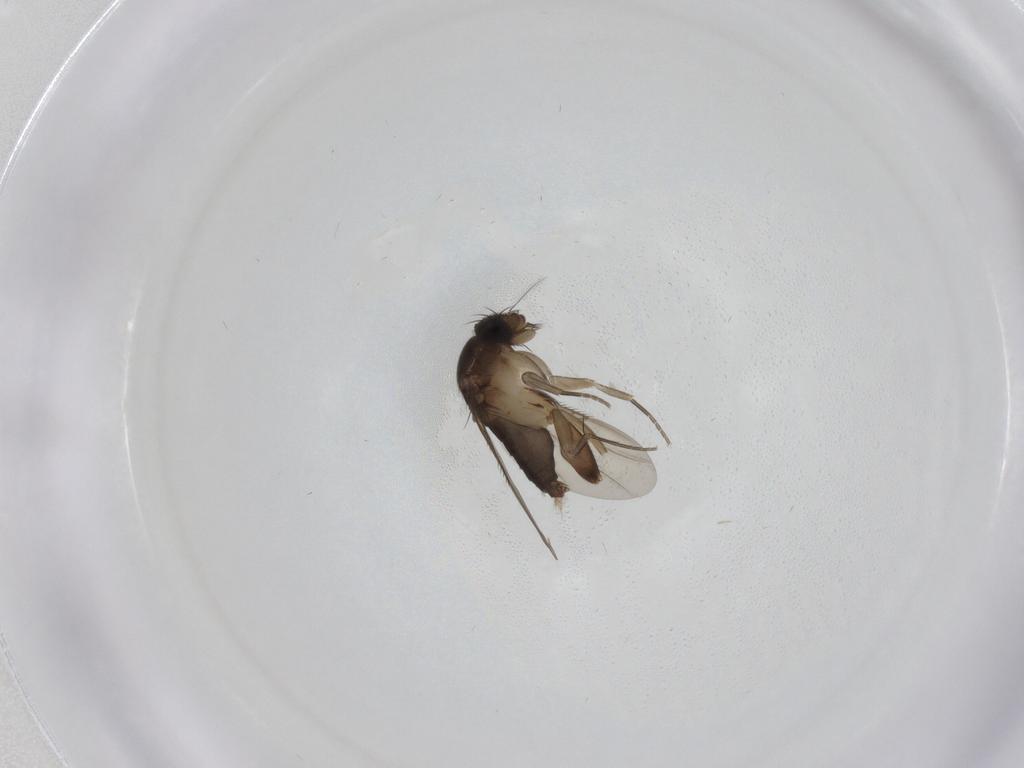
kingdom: Animalia
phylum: Arthropoda
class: Insecta
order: Diptera
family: Phoridae
